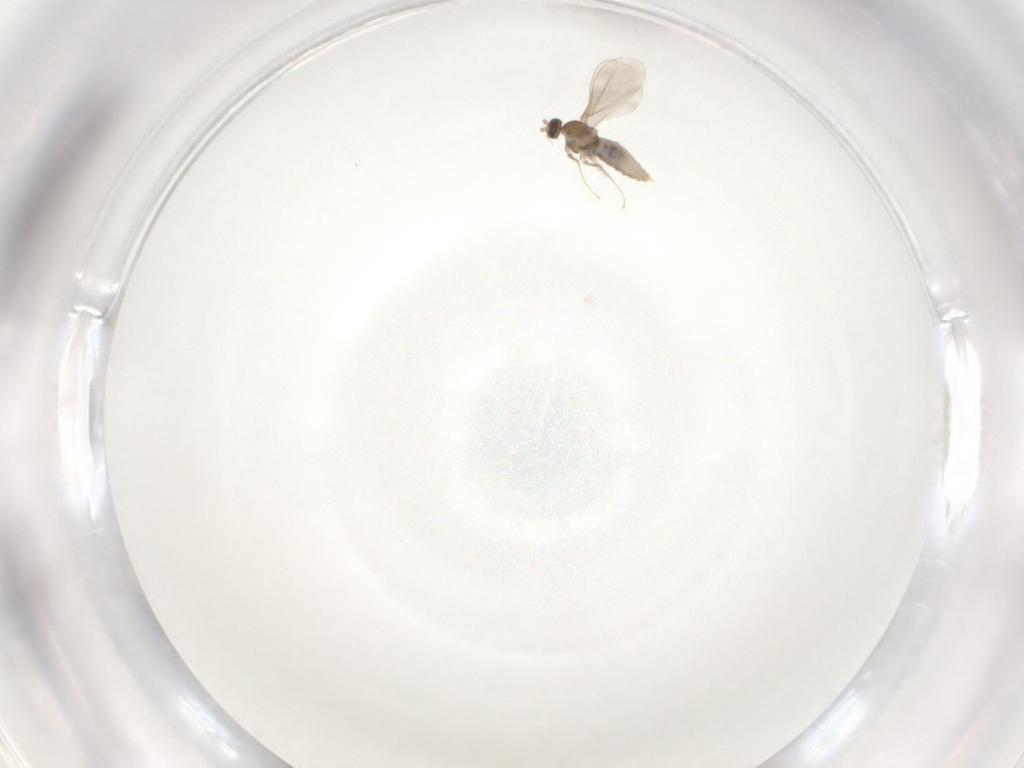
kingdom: Animalia
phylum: Arthropoda
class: Insecta
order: Diptera
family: Cecidomyiidae
